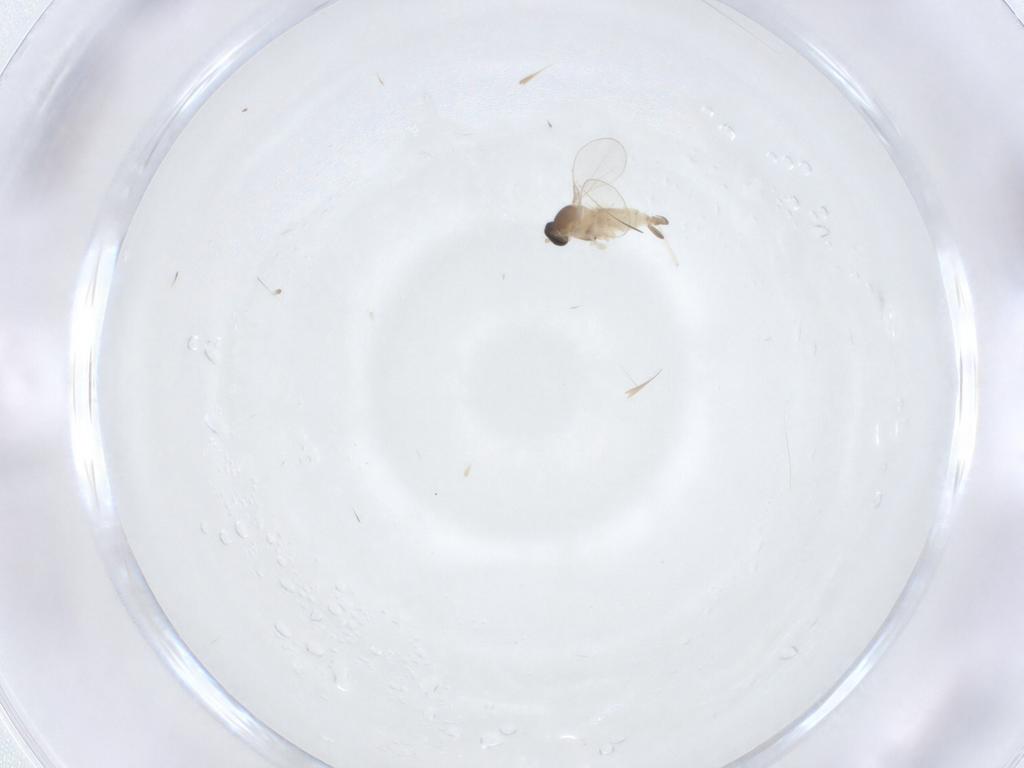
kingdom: Animalia
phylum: Arthropoda
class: Insecta
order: Diptera
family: Cecidomyiidae
